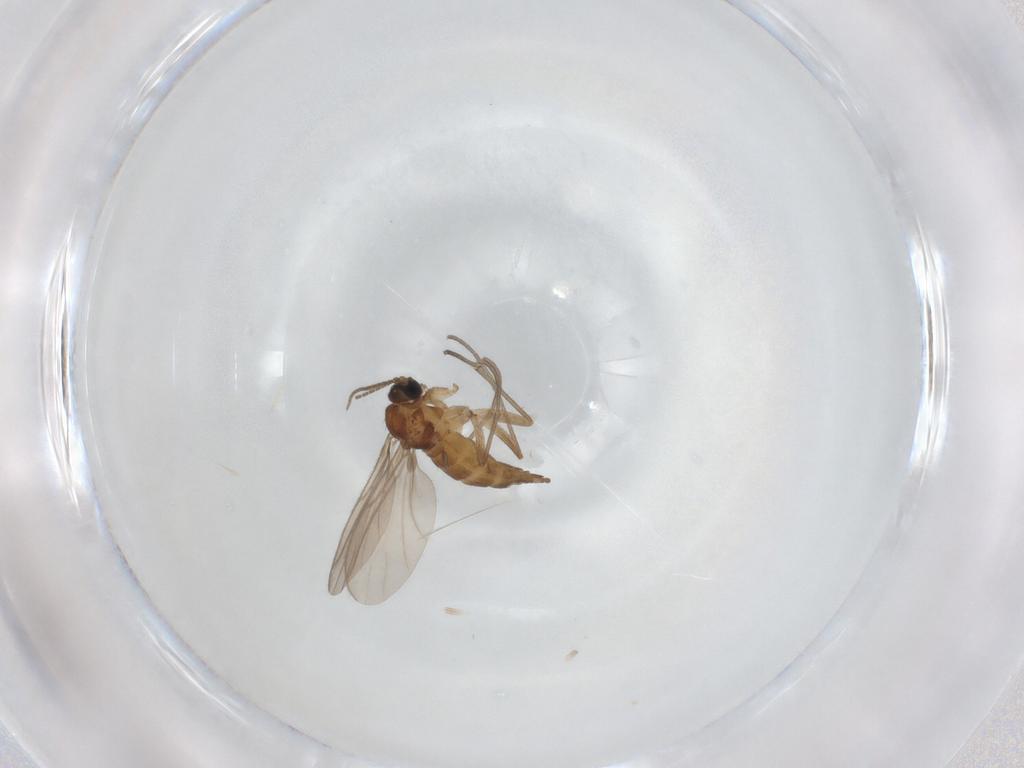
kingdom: Animalia
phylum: Arthropoda
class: Insecta
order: Diptera
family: Sciaridae
